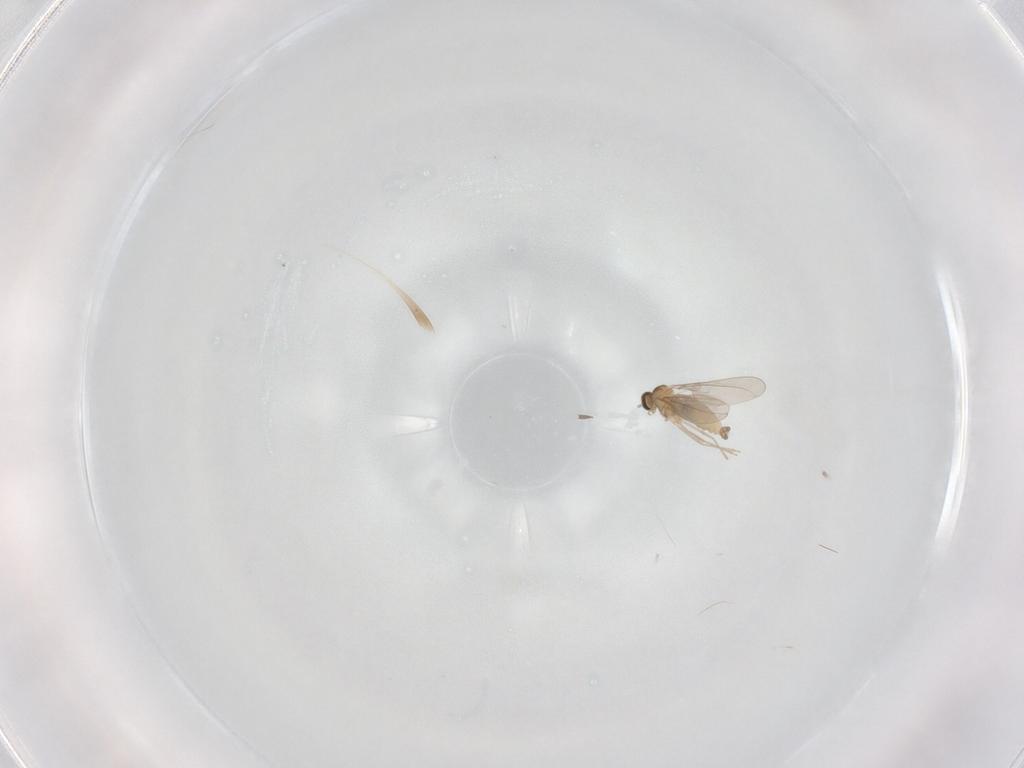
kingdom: Animalia
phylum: Arthropoda
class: Insecta
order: Diptera
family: Cecidomyiidae
